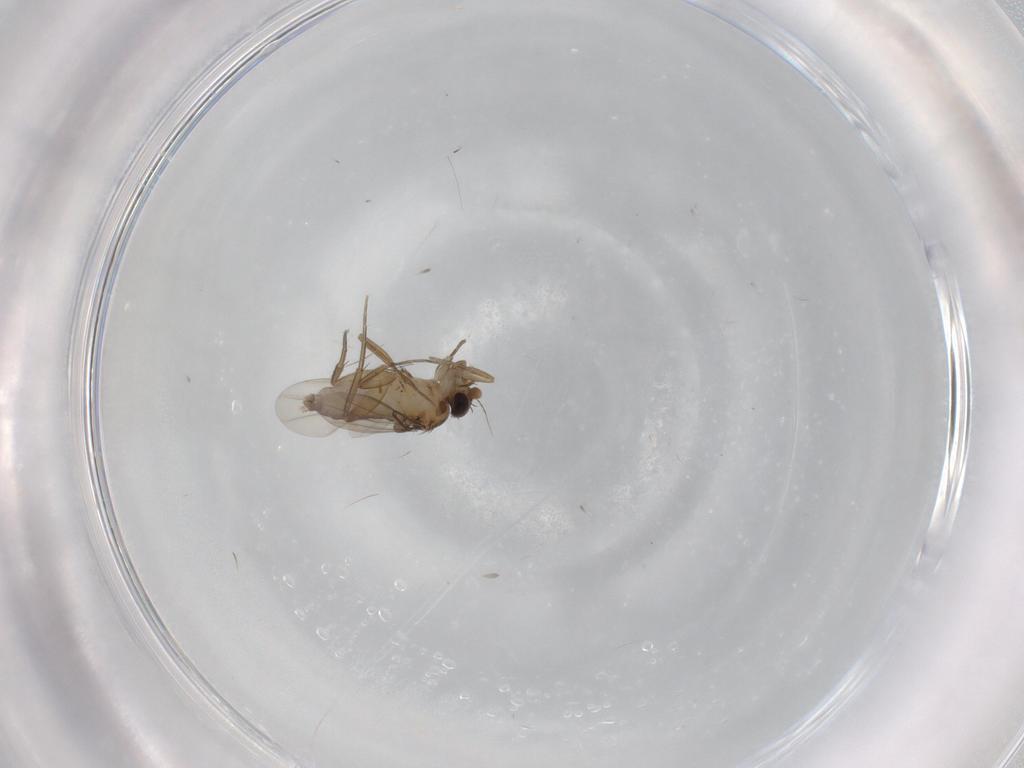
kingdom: Animalia
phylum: Arthropoda
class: Insecta
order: Diptera
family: Phoridae
